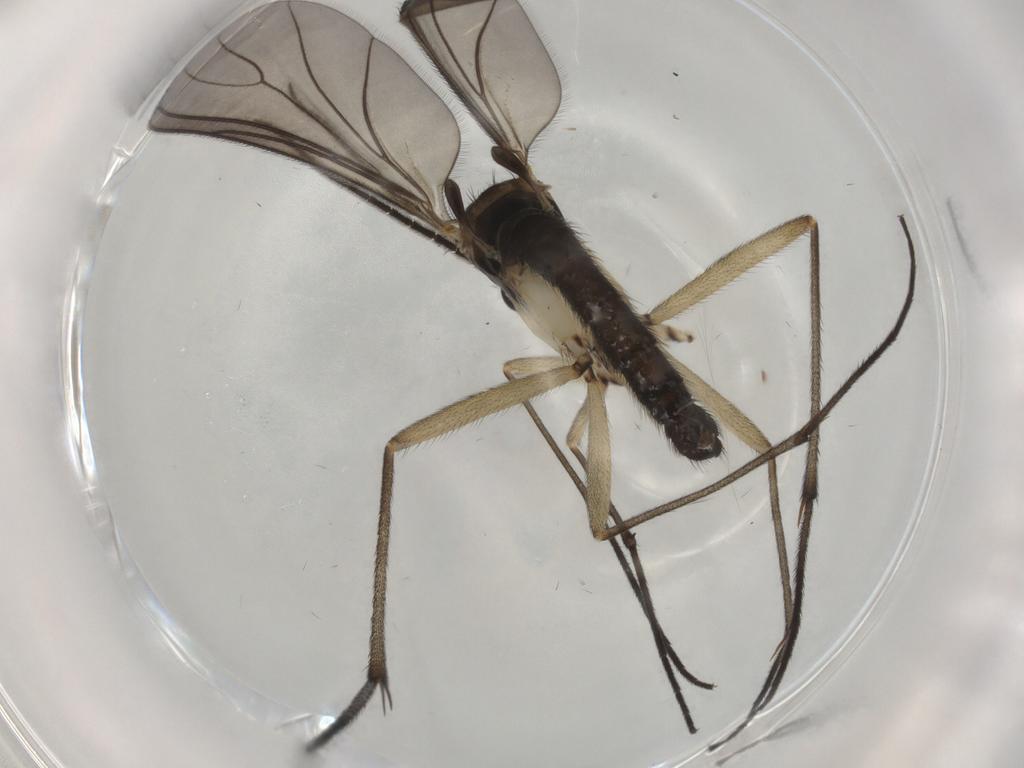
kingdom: Animalia
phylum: Arthropoda
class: Insecta
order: Diptera
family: Sciaridae
